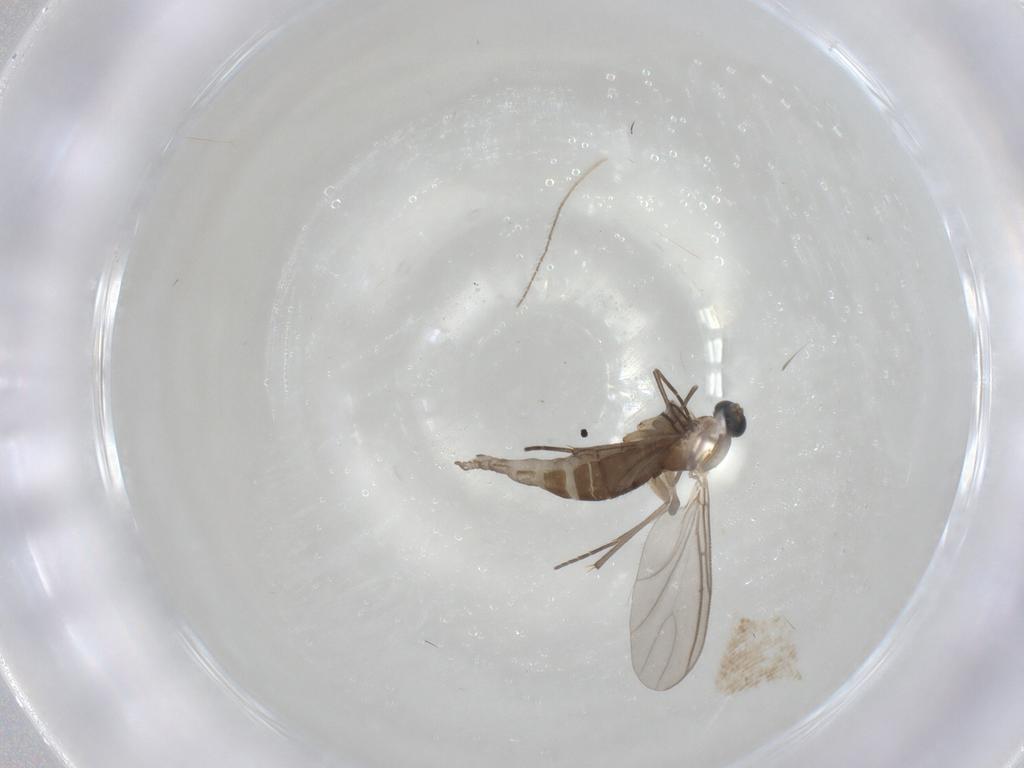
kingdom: Animalia
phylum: Arthropoda
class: Insecta
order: Diptera
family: Sciaridae
